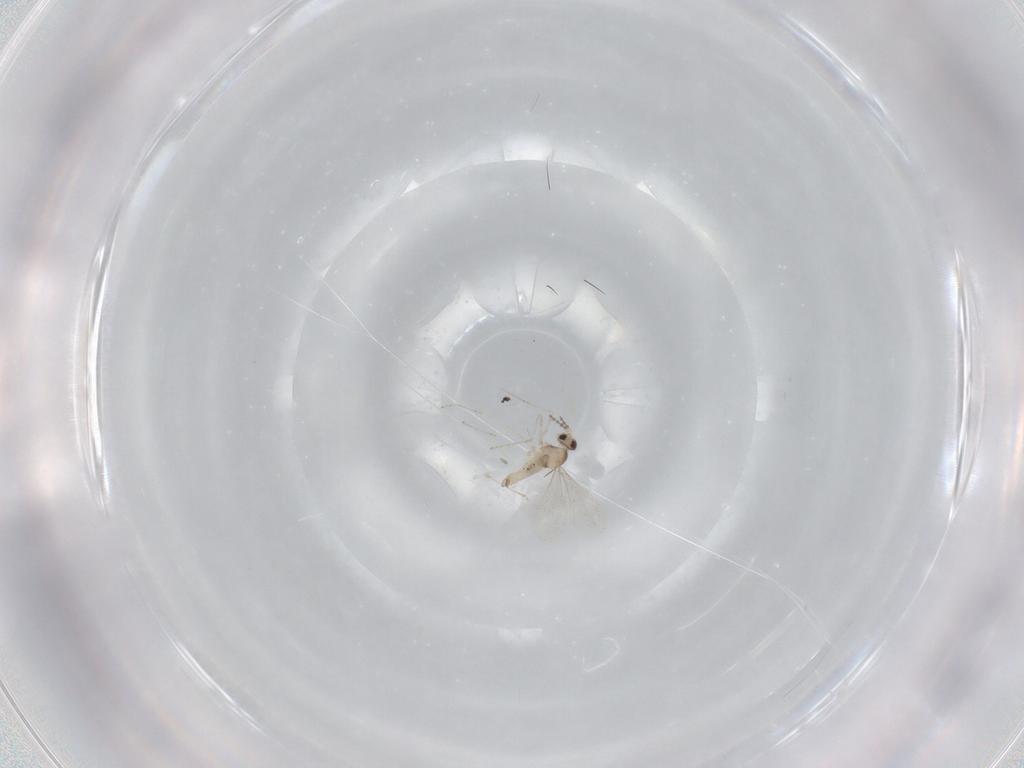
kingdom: Animalia
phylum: Arthropoda
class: Insecta
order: Diptera
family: Cecidomyiidae
